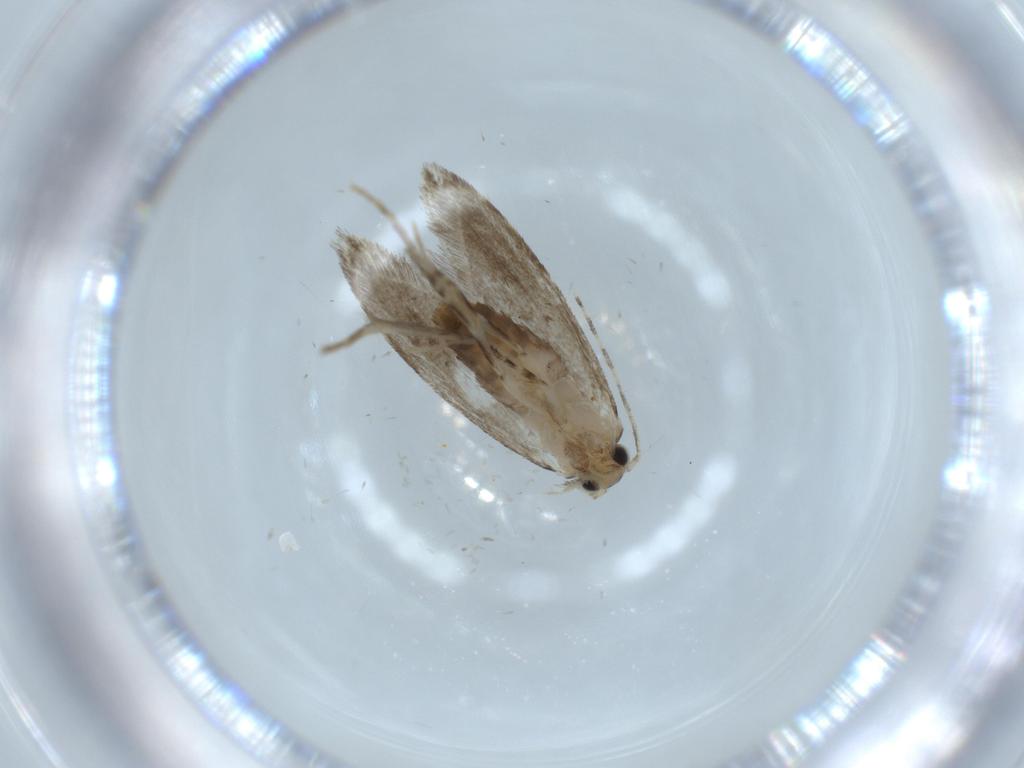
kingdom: Animalia
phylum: Arthropoda
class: Insecta
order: Lepidoptera
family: Tineidae
